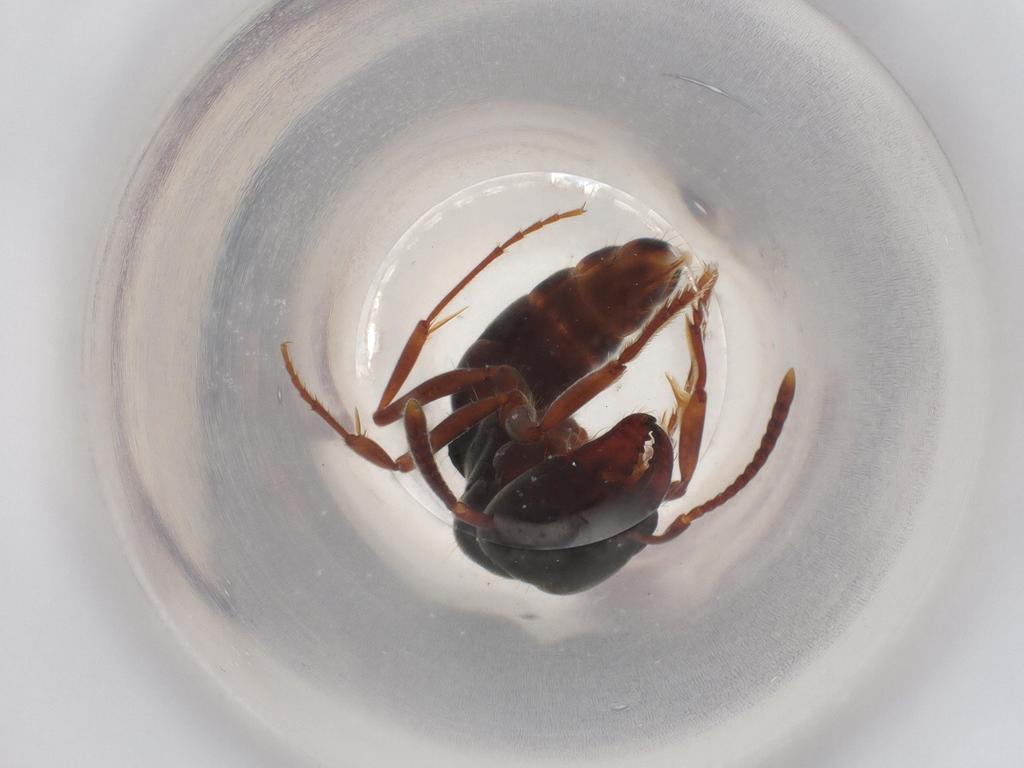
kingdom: Animalia
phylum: Arthropoda
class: Insecta
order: Hymenoptera
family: Formicidae
